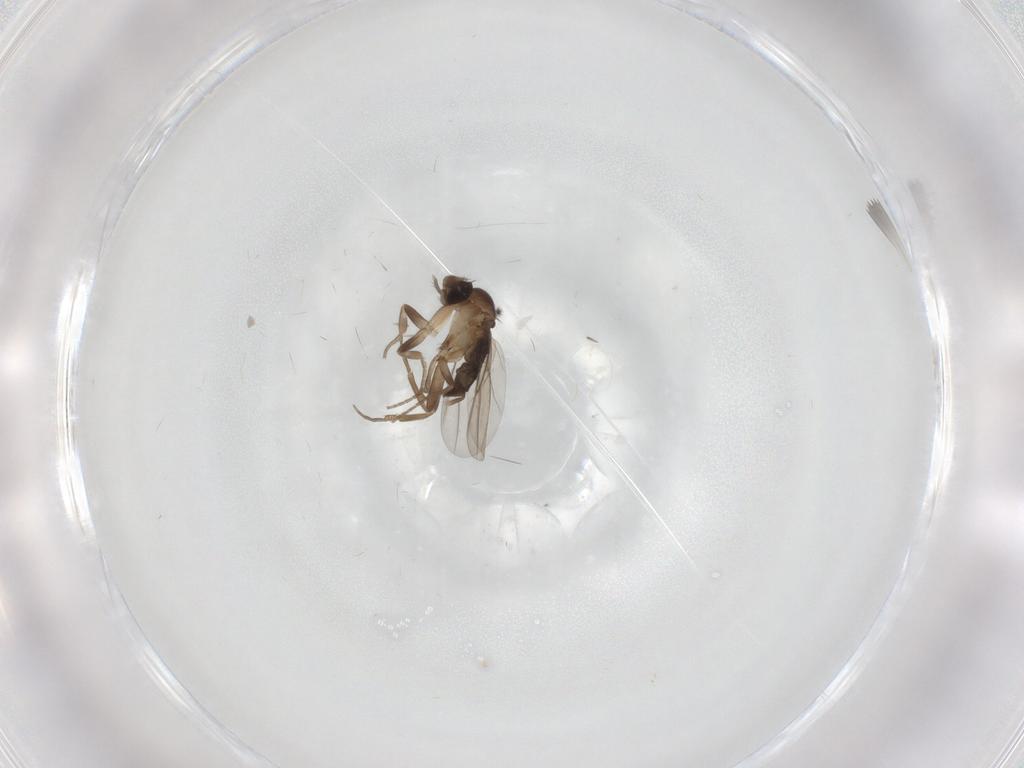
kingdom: Animalia
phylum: Arthropoda
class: Insecta
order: Diptera
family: Phoridae
